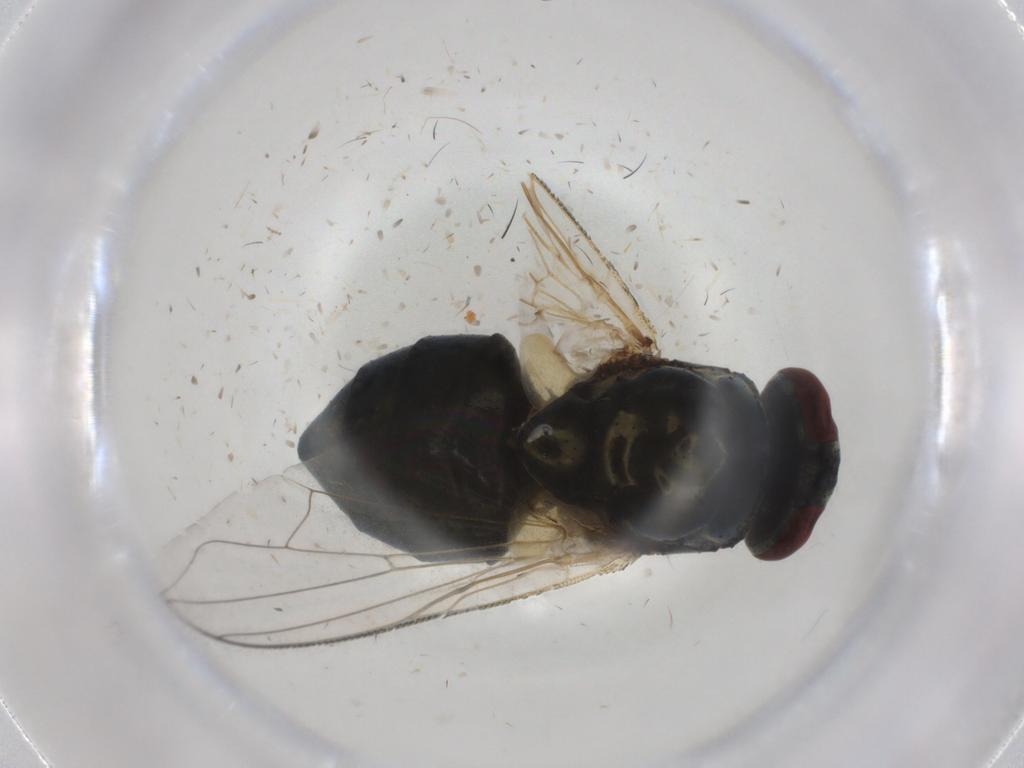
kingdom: Animalia
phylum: Arthropoda
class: Insecta
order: Diptera
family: Muscidae
